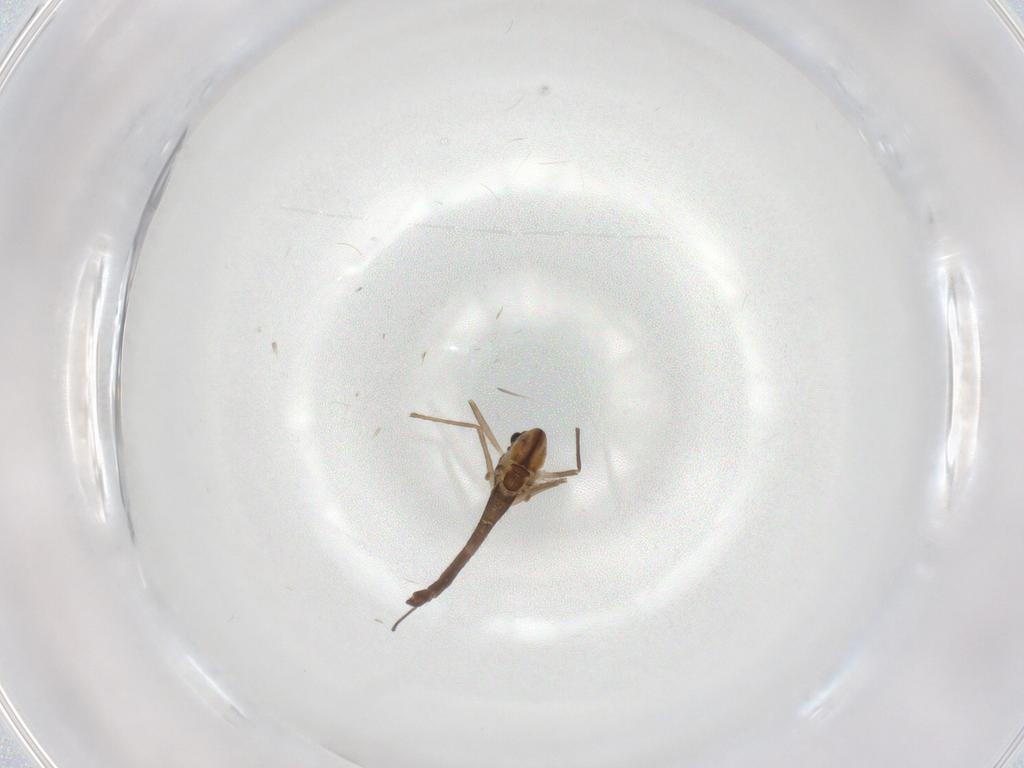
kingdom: Animalia
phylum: Arthropoda
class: Insecta
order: Diptera
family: Chironomidae
